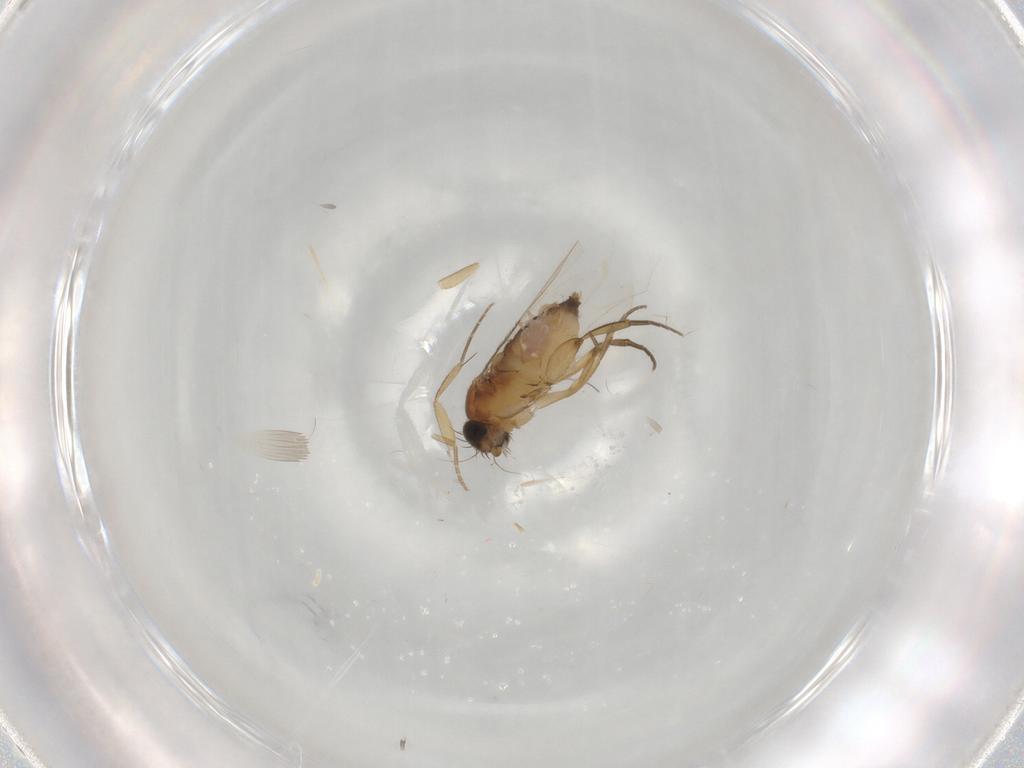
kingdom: Animalia
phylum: Arthropoda
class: Insecta
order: Diptera
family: Phoridae
